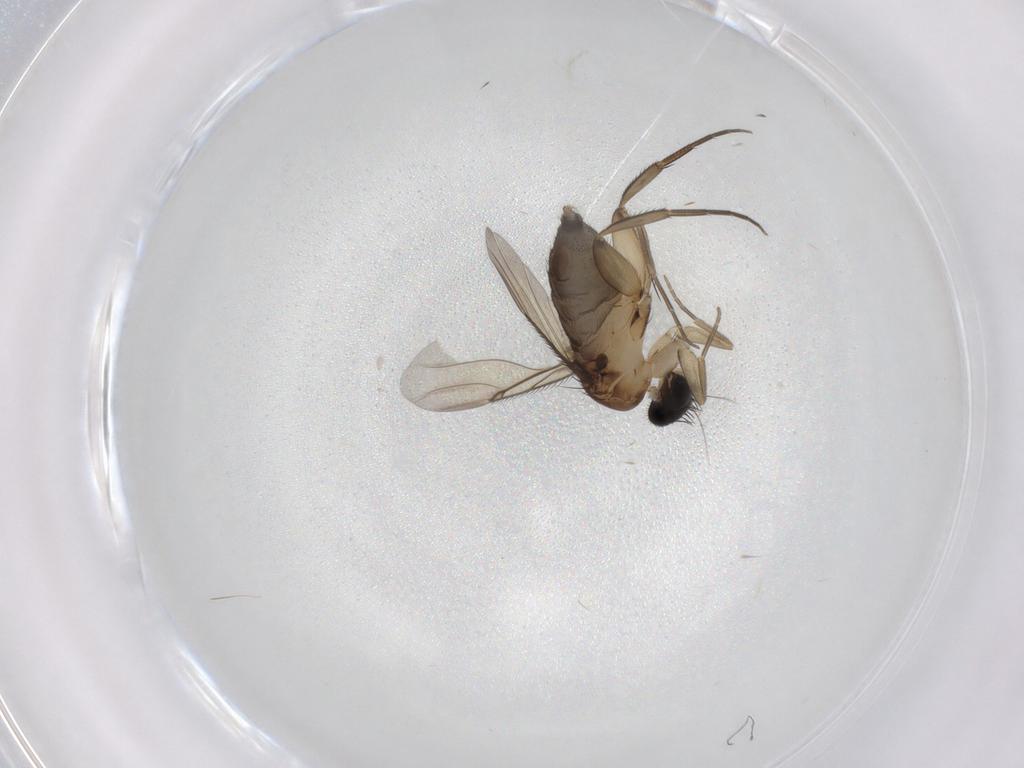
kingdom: Animalia
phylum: Arthropoda
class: Insecta
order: Diptera
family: Phoridae
